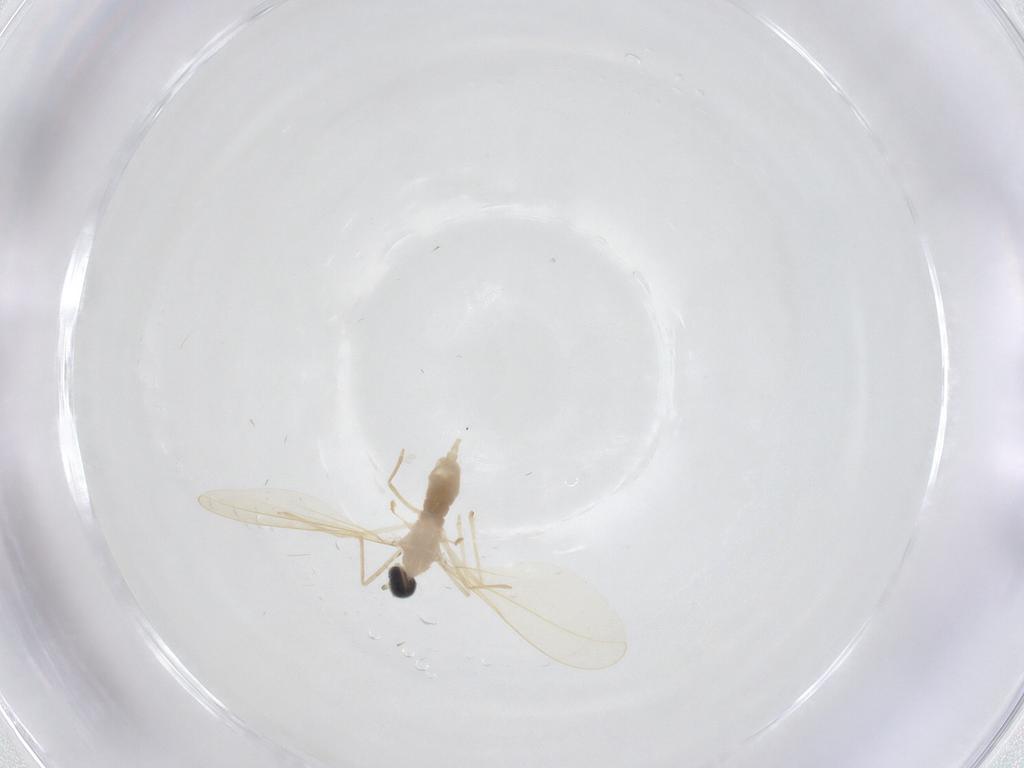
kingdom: Animalia
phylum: Arthropoda
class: Insecta
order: Diptera
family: Cecidomyiidae
